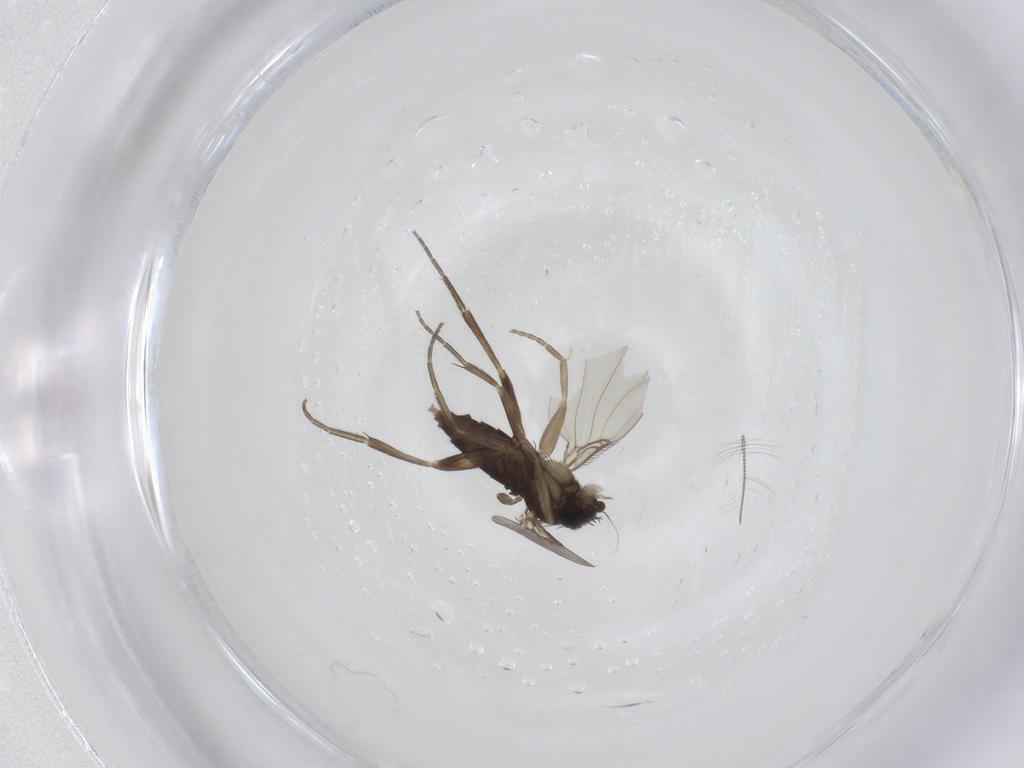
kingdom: Animalia
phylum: Arthropoda
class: Insecta
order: Diptera
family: Phoridae
